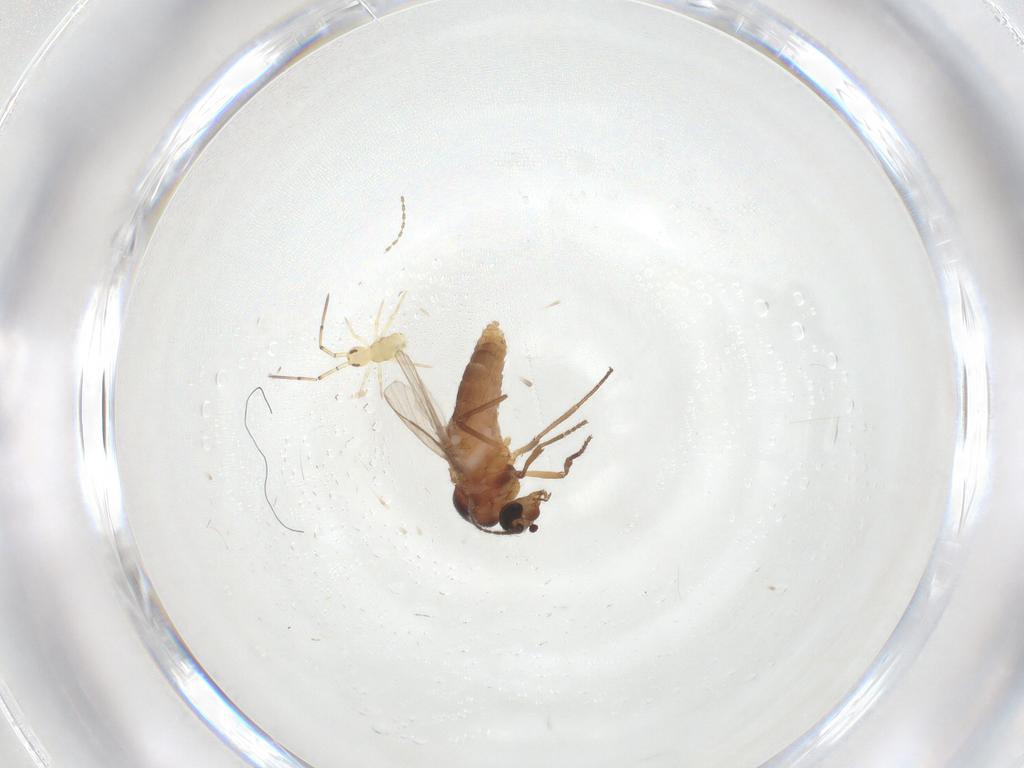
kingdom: Animalia
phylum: Arthropoda
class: Insecta
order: Diptera
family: Ceratopogonidae
